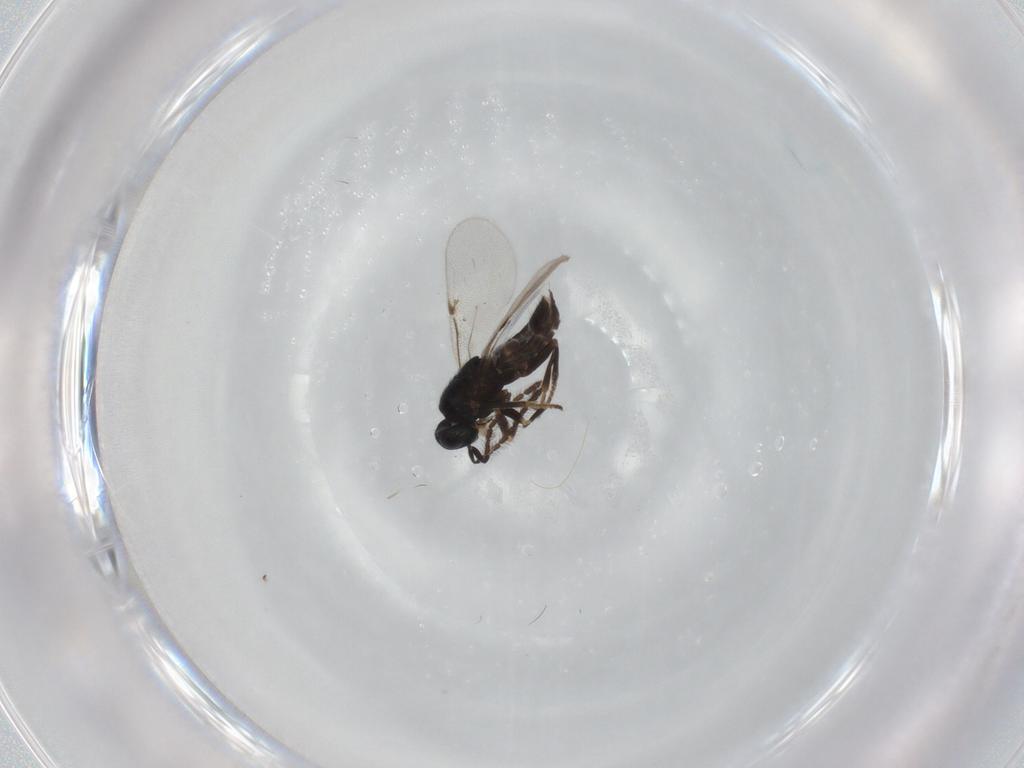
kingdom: Animalia
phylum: Arthropoda
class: Insecta
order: Hymenoptera
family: Encyrtidae
